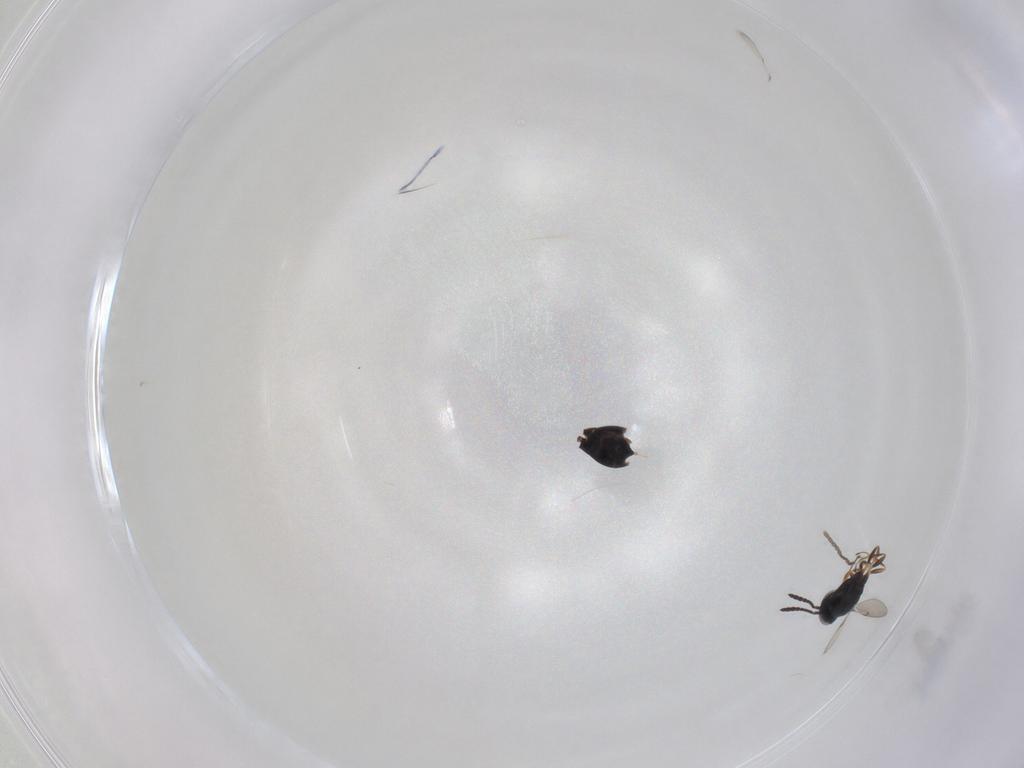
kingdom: Animalia
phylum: Arthropoda
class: Insecta
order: Hymenoptera
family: Scelionidae
